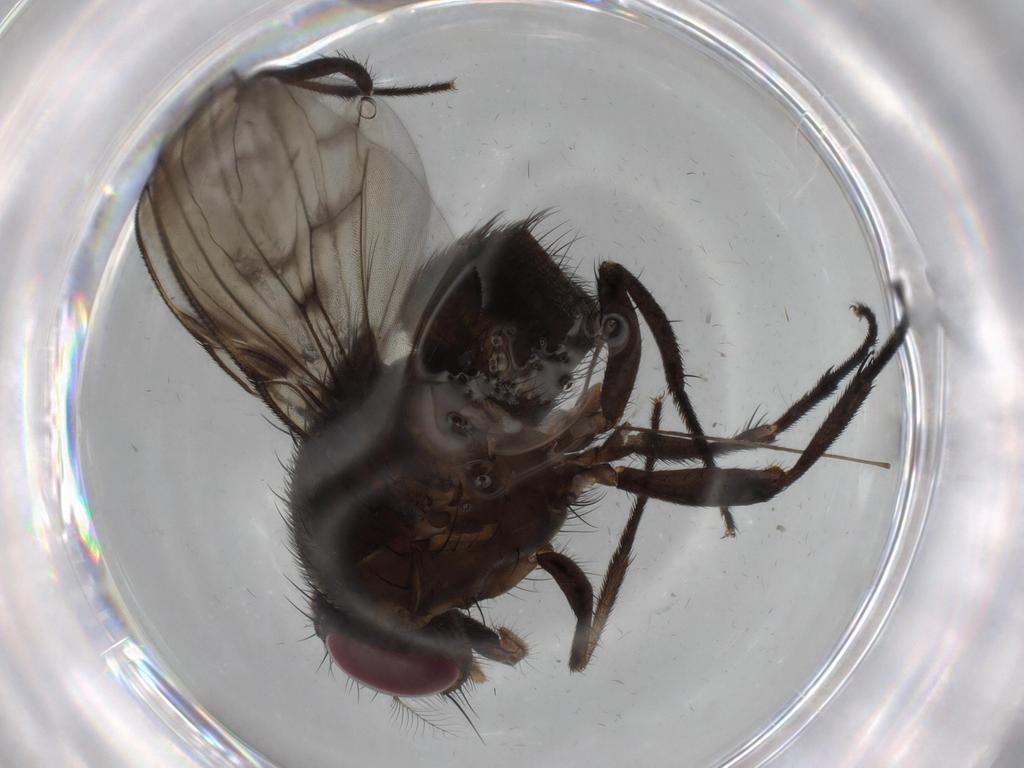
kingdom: Animalia
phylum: Arthropoda
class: Insecta
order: Diptera
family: Muscidae
